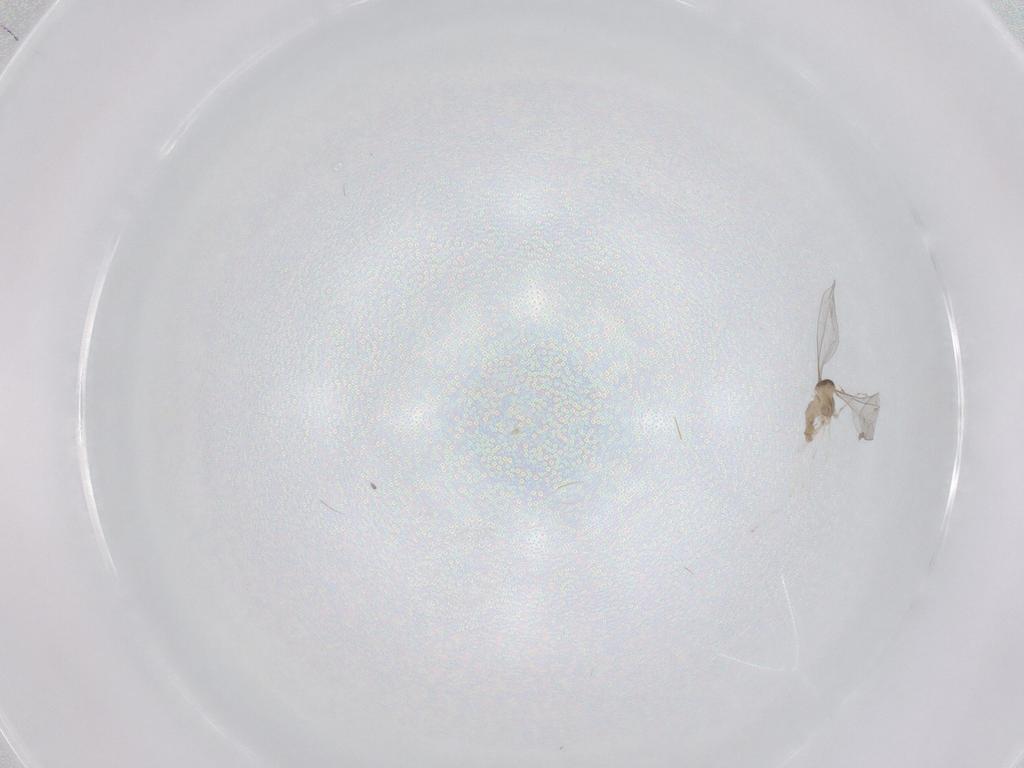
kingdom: Animalia
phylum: Arthropoda
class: Insecta
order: Diptera
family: Cecidomyiidae
